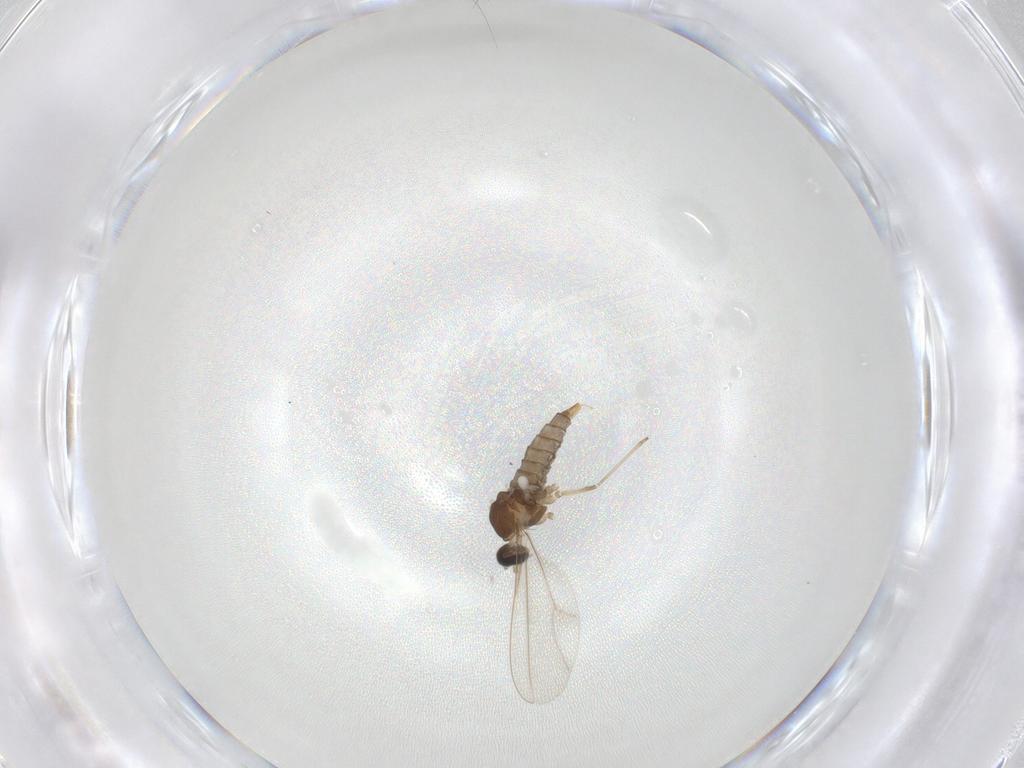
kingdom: Animalia
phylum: Arthropoda
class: Insecta
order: Diptera
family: Cecidomyiidae
